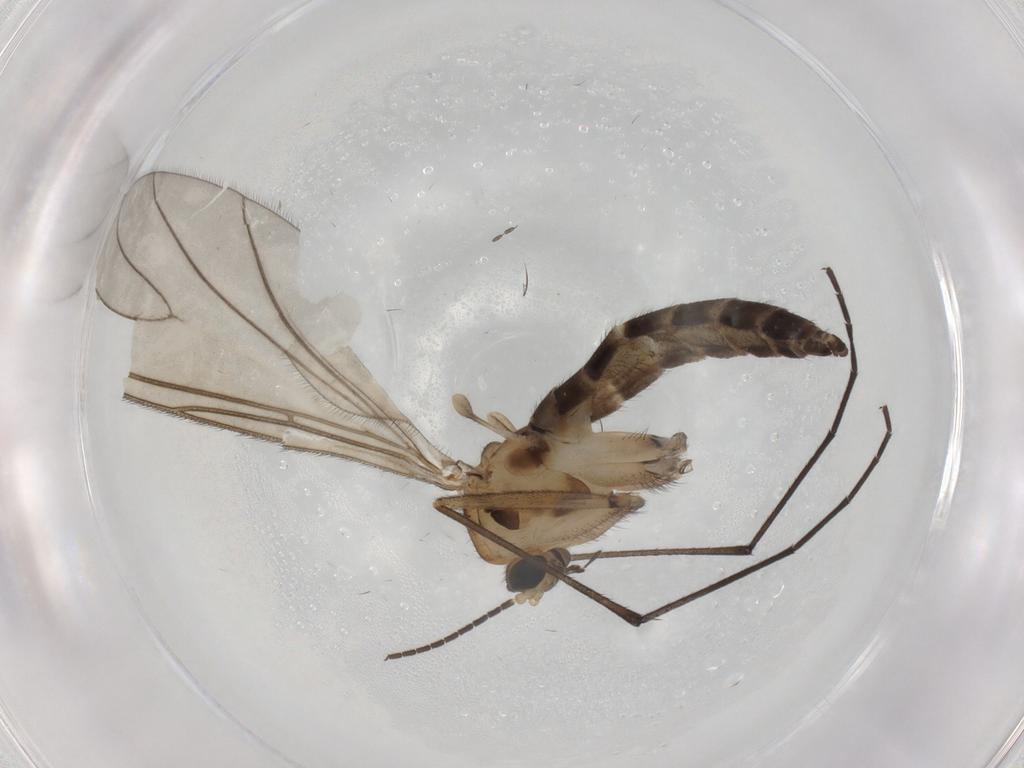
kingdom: Animalia
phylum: Arthropoda
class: Insecta
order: Diptera
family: Sciaridae
